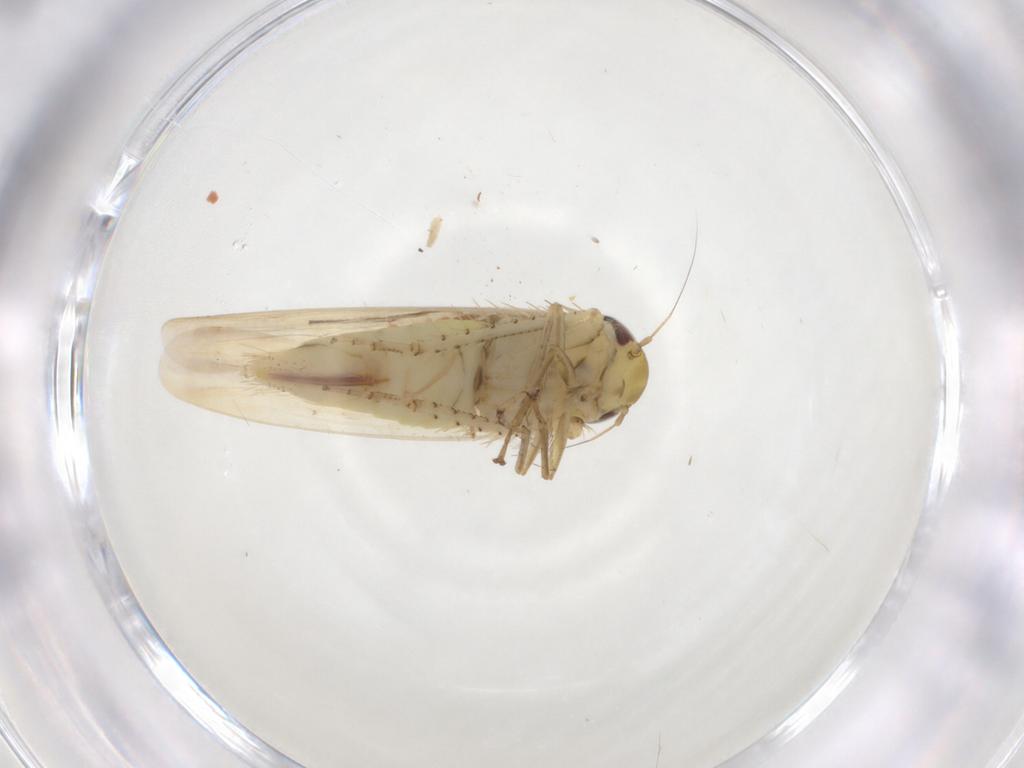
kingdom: Animalia
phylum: Arthropoda
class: Insecta
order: Hemiptera
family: Cicadellidae
